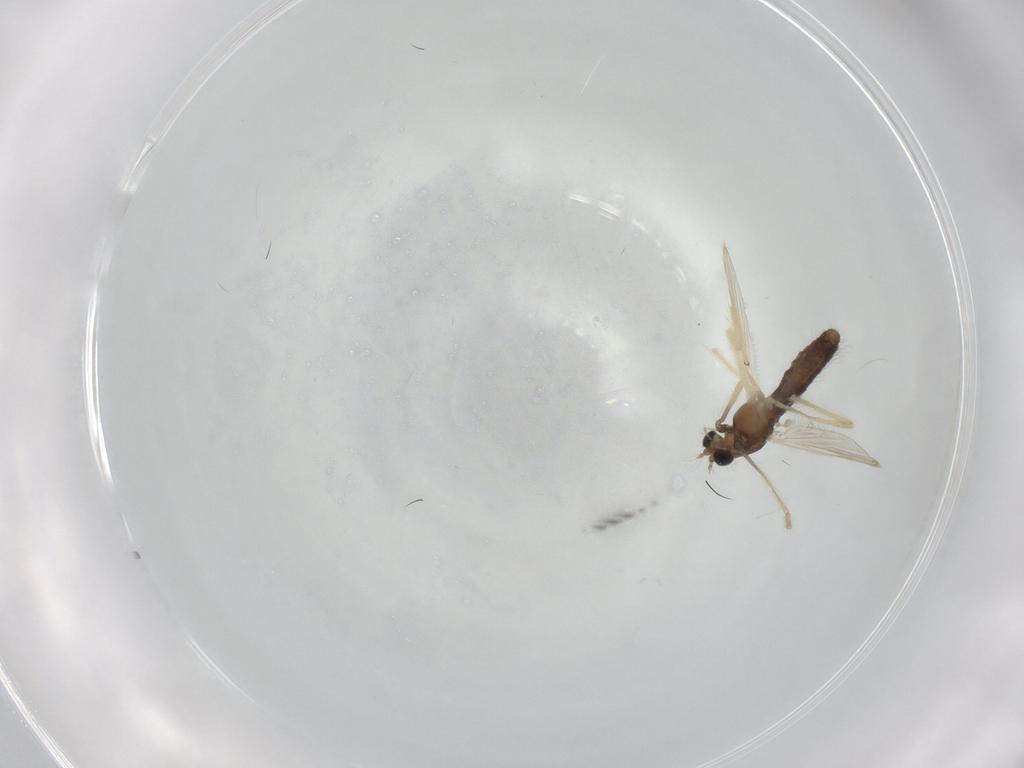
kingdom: Animalia
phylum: Arthropoda
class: Insecta
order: Diptera
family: Chironomidae
